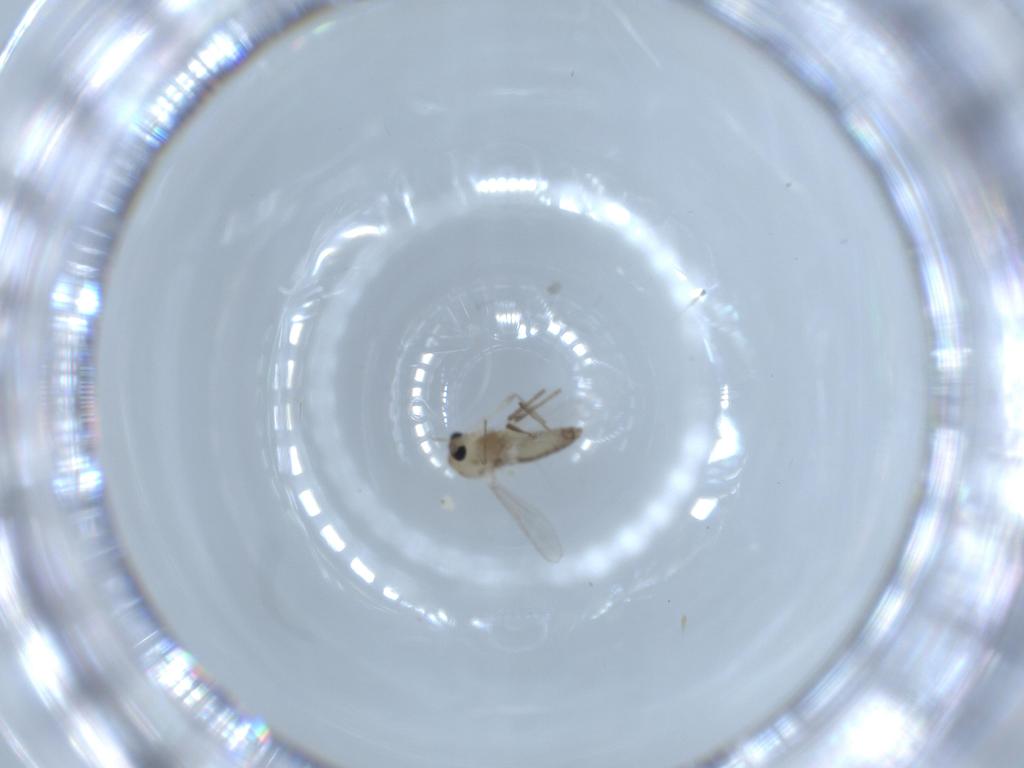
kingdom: Animalia
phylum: Arthropoda
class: Insecta
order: Diptera
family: Chironomidae
